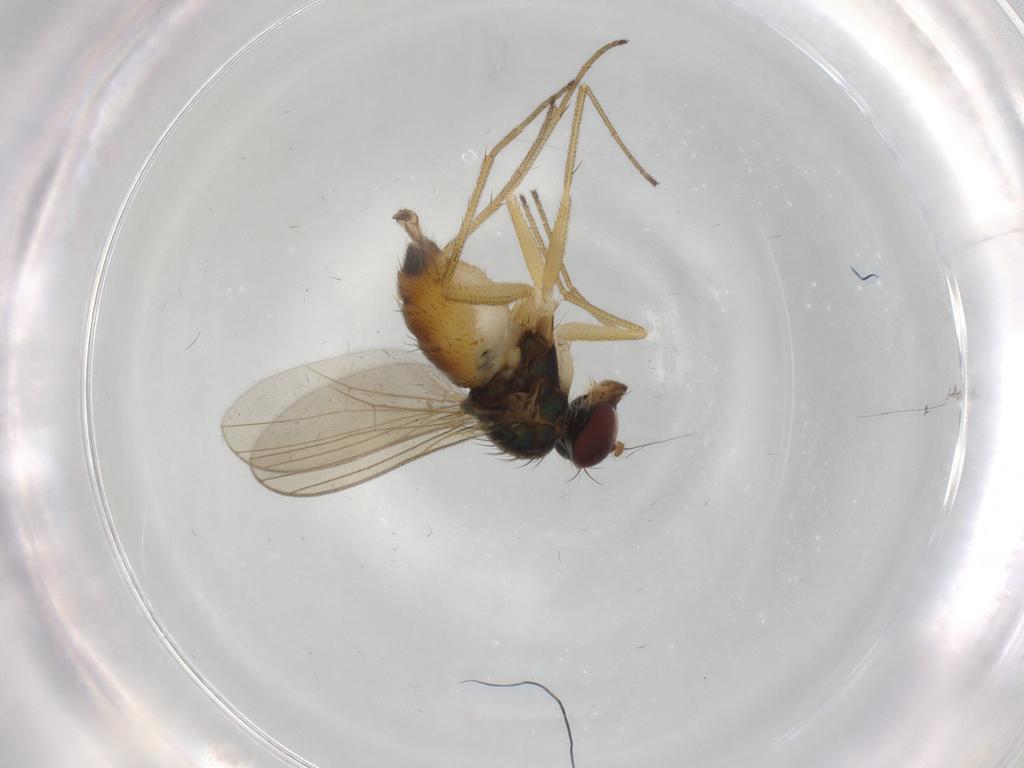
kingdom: Animalia
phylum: Arthropoda
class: Insecta
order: Diptera
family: Dolichopodidae
